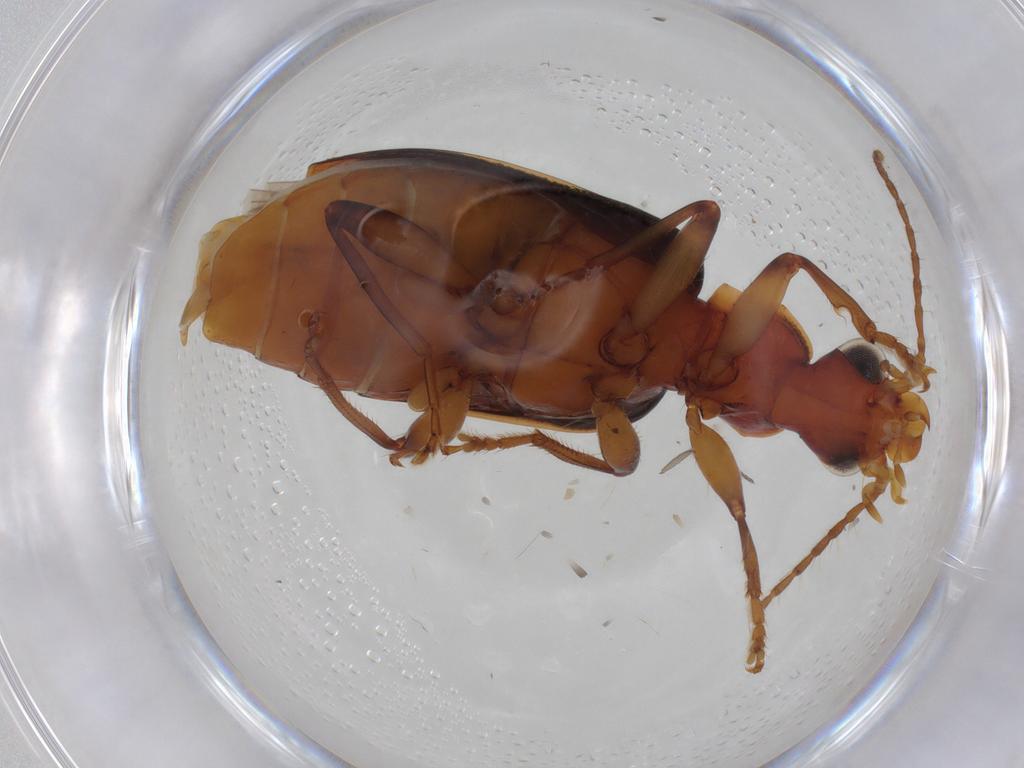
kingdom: Animalia
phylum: Arthropoda
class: Insecta
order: Coleoptera
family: Carabidae
